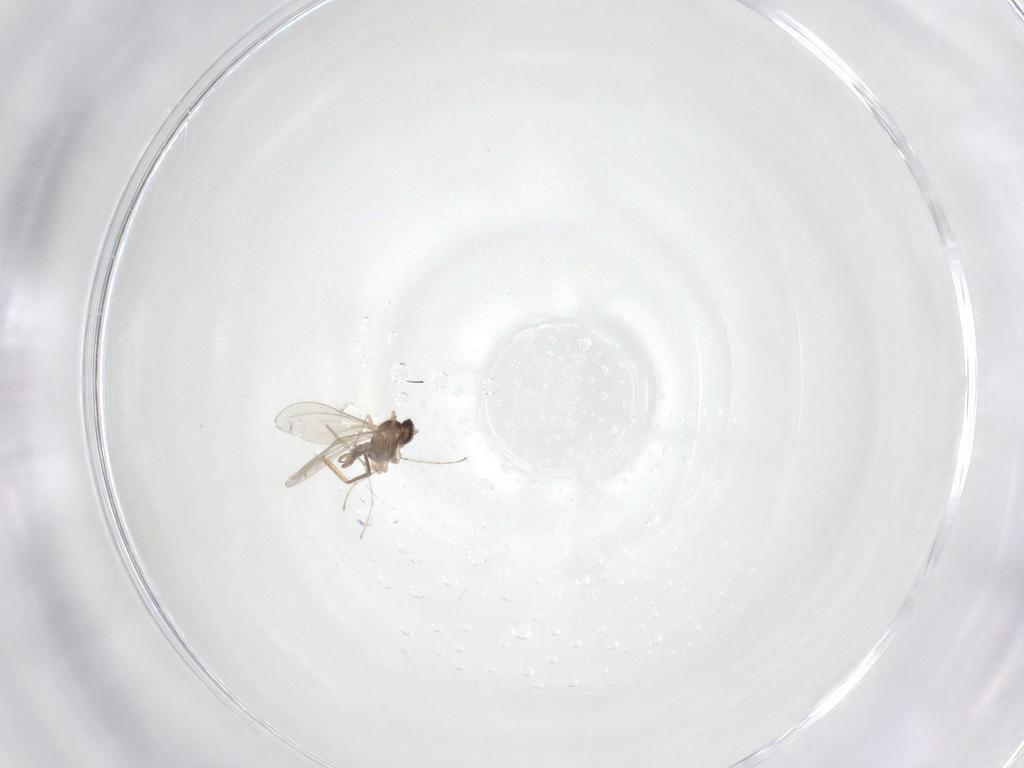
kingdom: Animalia
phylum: Arthropoda
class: Insecta
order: Diptera
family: Cecidomyiidae
